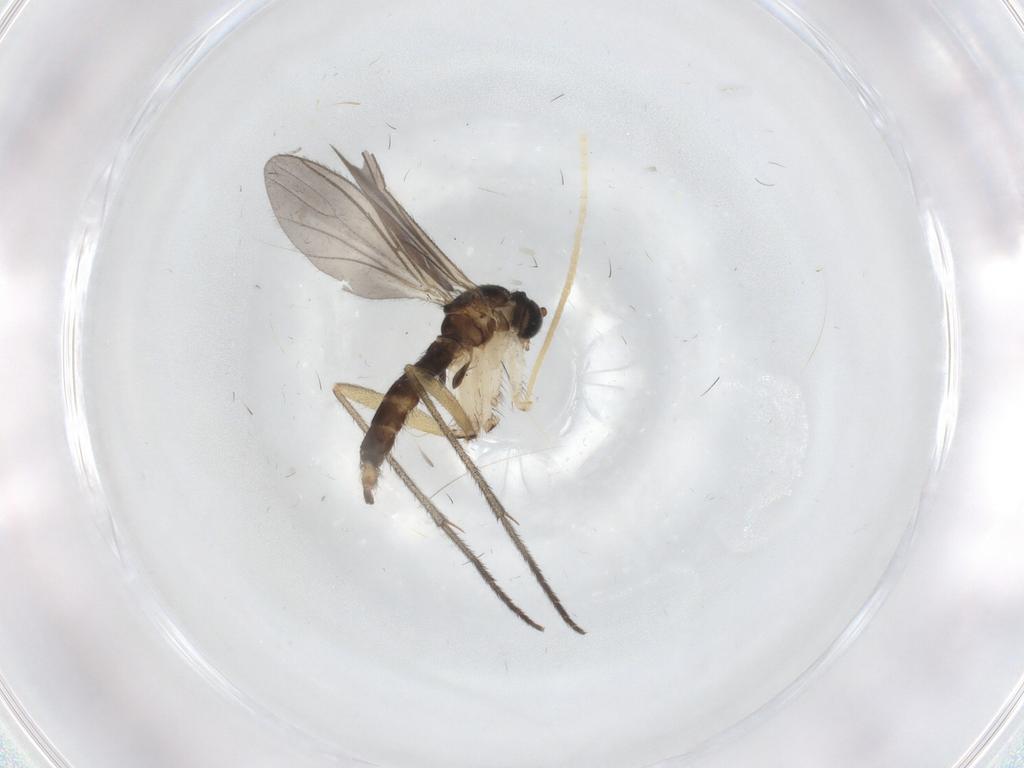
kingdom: Animalia
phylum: Arthropoda
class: Insecta
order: Diptera
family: Sciaridae
